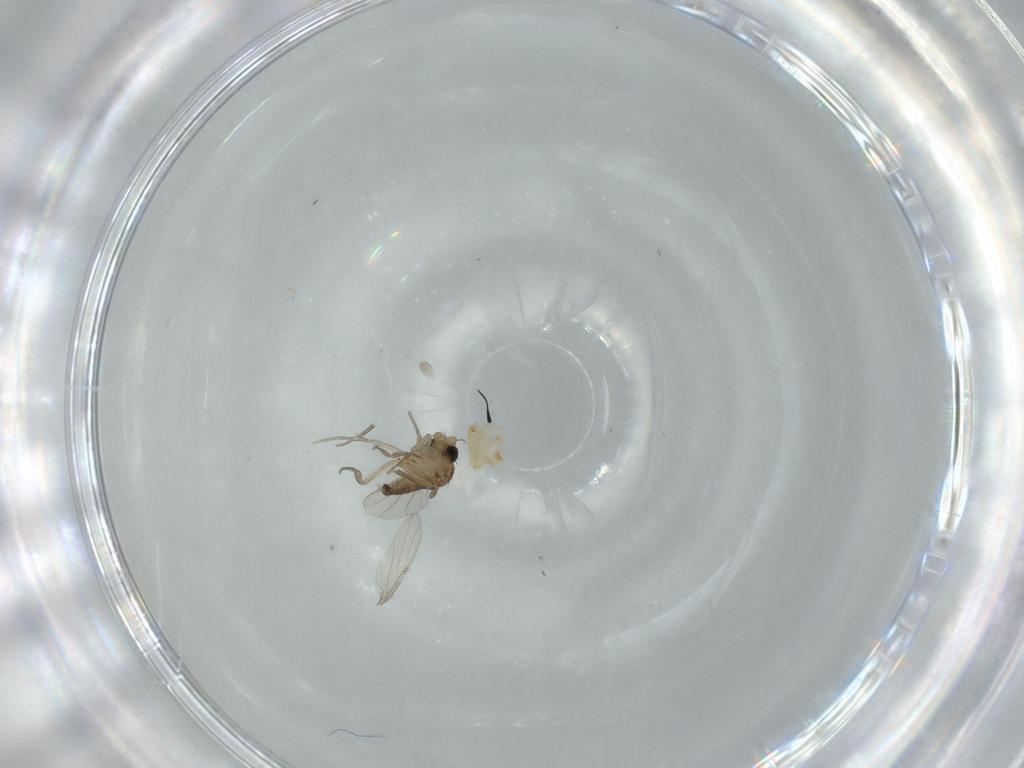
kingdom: Animalia
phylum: Arthropoda
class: Insecta
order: Diptera
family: Phoridae
